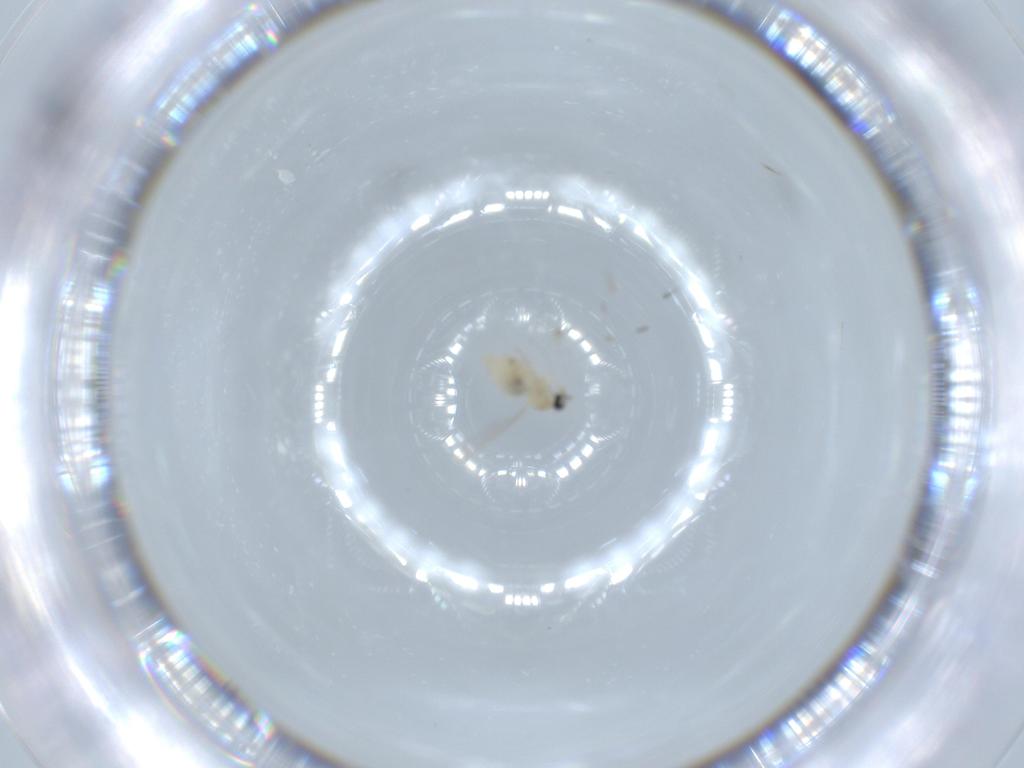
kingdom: Animalia
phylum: Arthropoda
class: Insecta
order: Diptera
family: Cecidomyiidae
